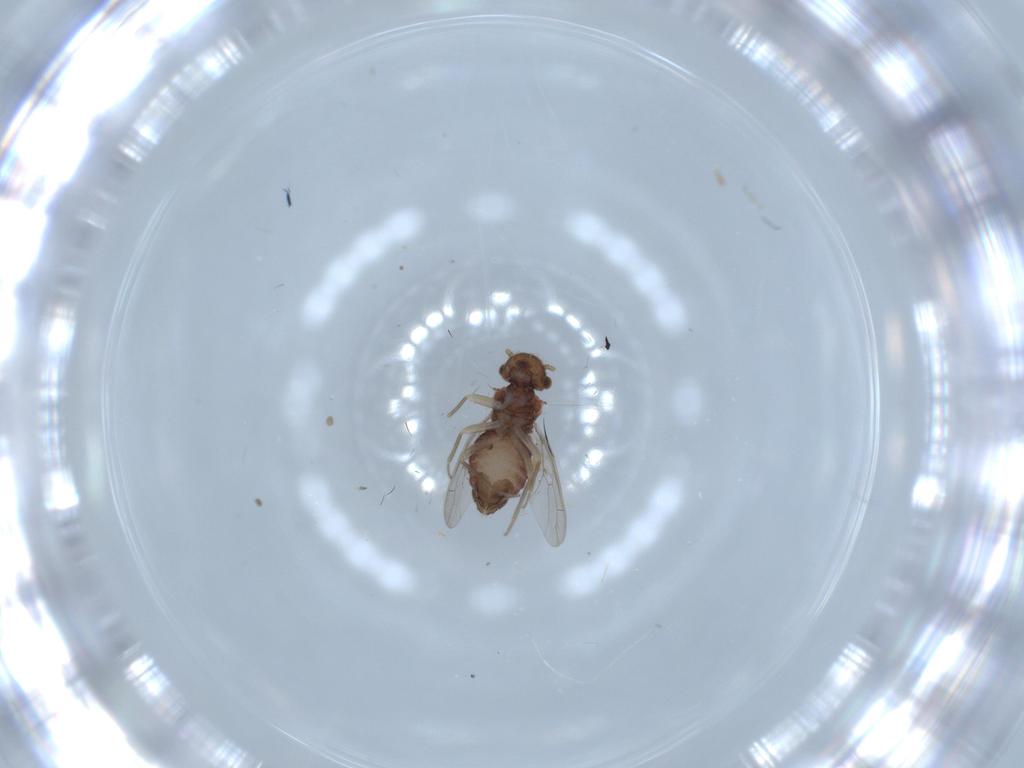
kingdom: Animalia
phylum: Arthropoda
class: Insecta
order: Psocodea
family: Ectopsocidae
